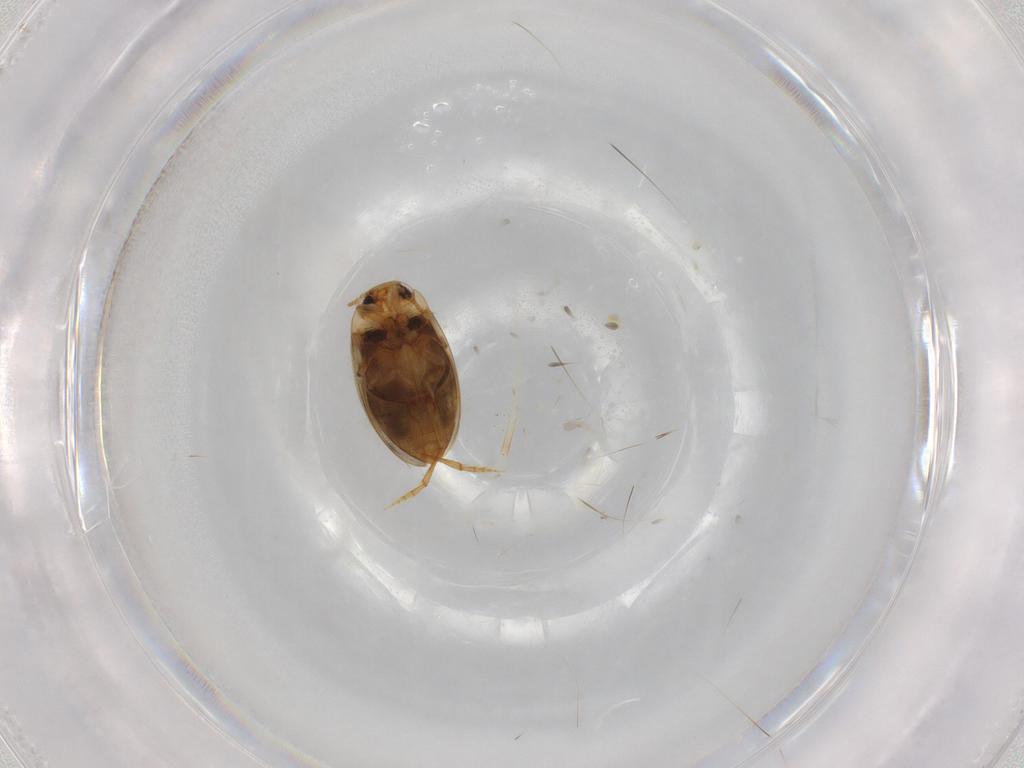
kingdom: Animalia
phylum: Arthropoda
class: Insecta
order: Coleoptera
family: Dytiscidae
